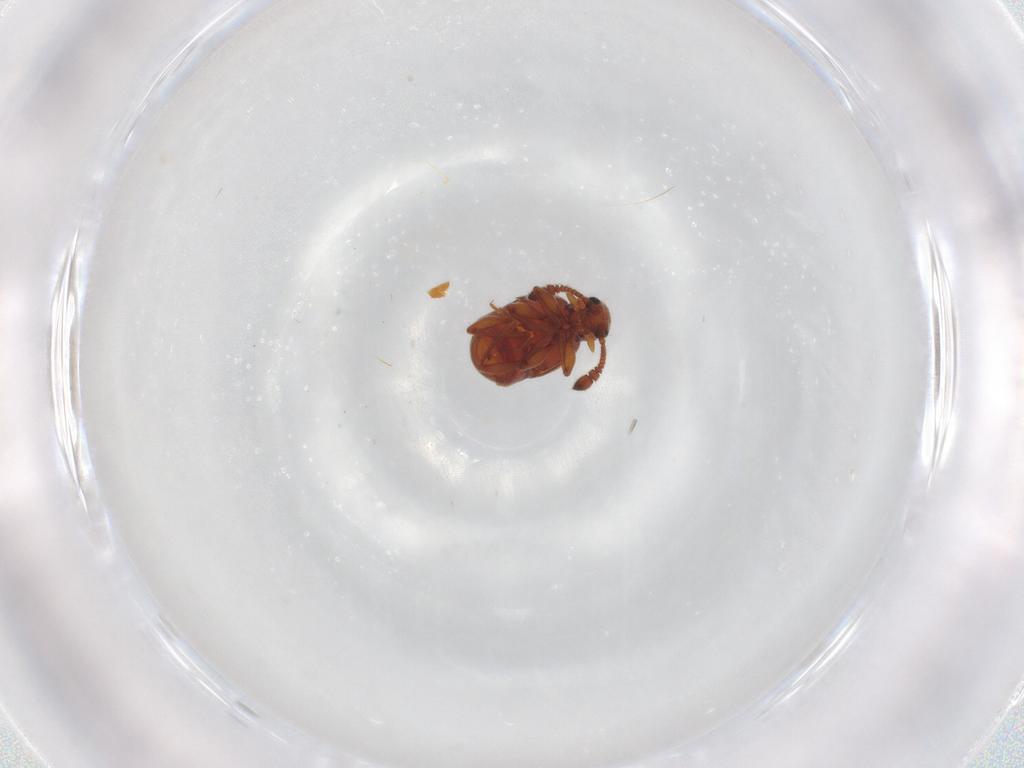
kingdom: Animalia
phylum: Arthropoda
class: Insecta
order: Coleoptera
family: Staphylinidae
